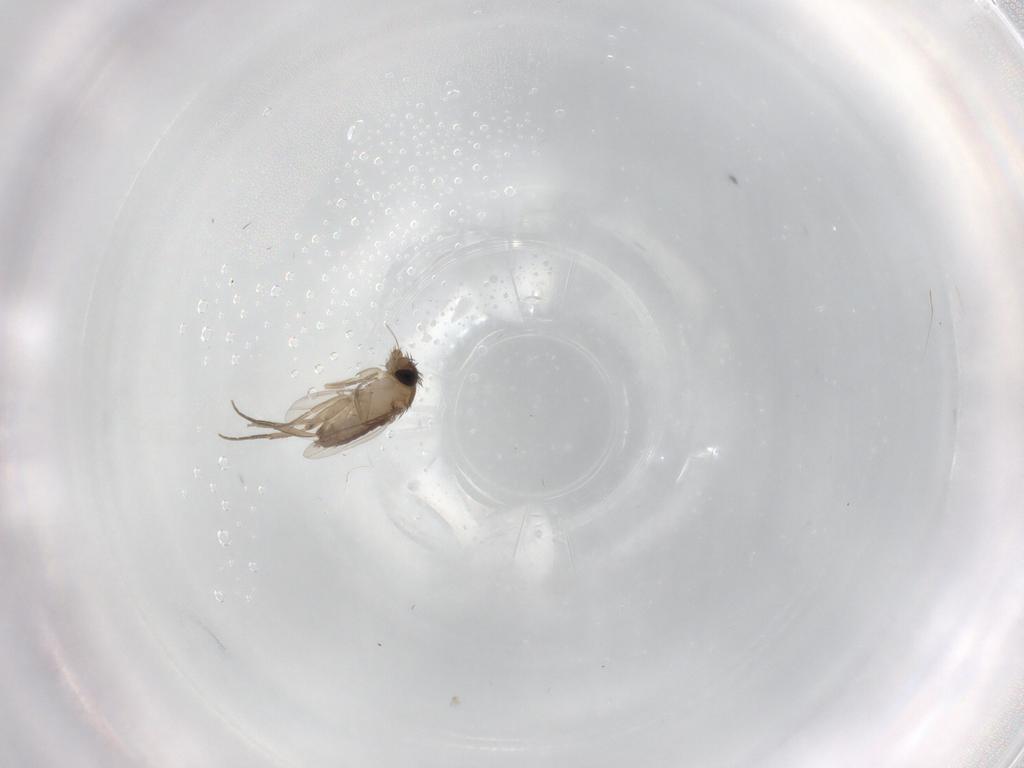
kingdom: Animalia
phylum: Arthropoda
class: Insecta
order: Diptera
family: Phoridae
